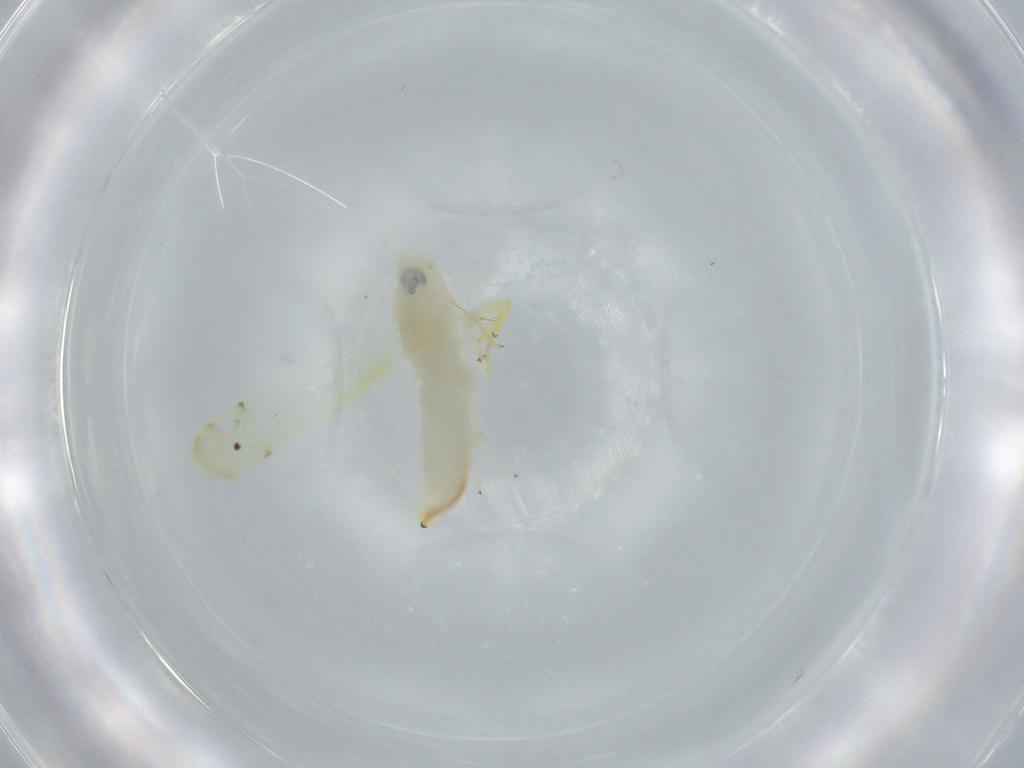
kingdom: Animalia
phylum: Arthropoda
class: Insecta
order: Hemiptera
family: Cicadellidae
